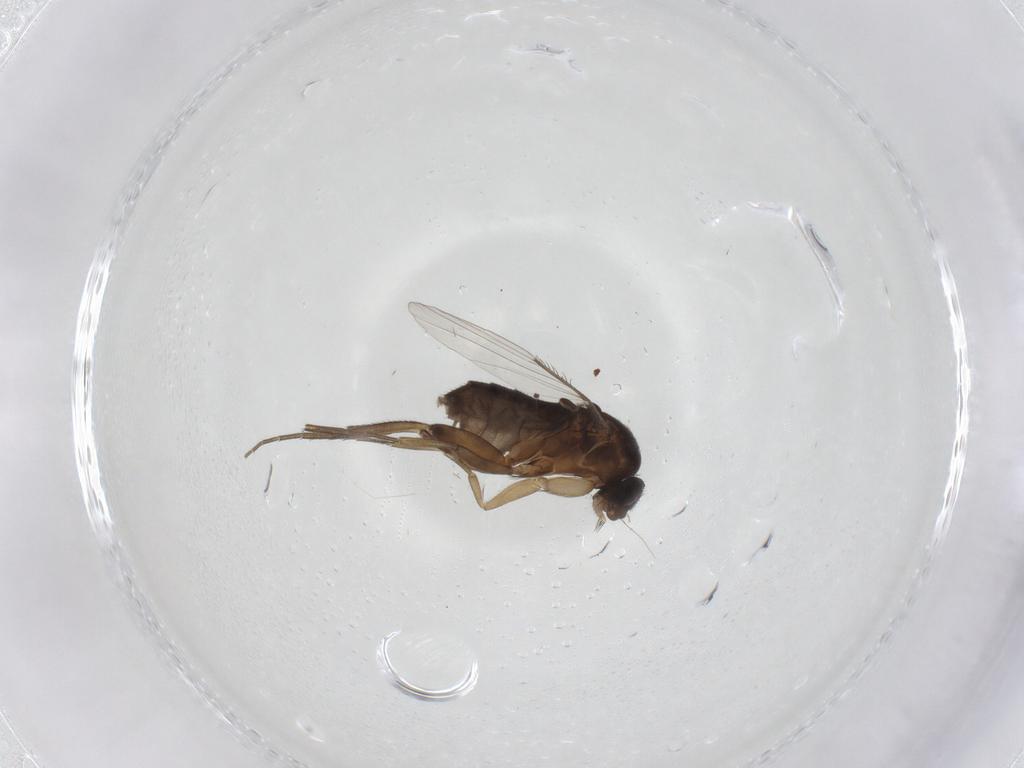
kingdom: Animalia
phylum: Arthropoda
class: Insecta
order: Diptera
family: Phoridae
